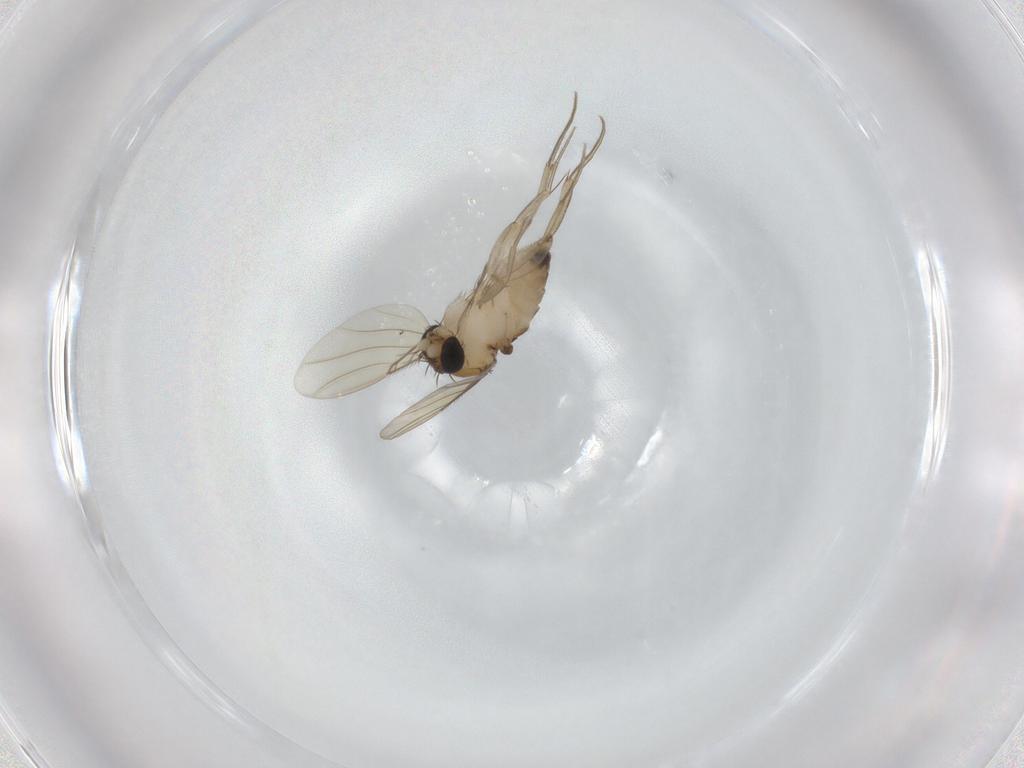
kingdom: Animalia
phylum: Arthropoda
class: Insecta
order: Diptera
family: Phoridae
